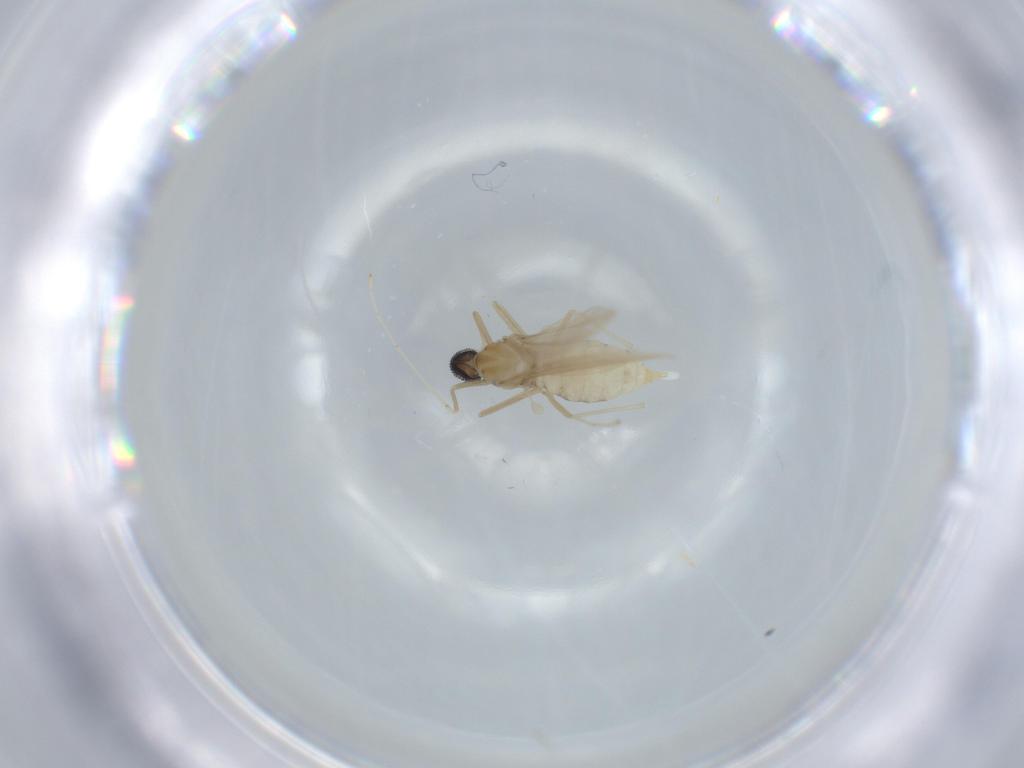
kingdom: Animalia
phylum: Arthropoda
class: Insecta
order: Diptera
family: Cecidomyiidae
